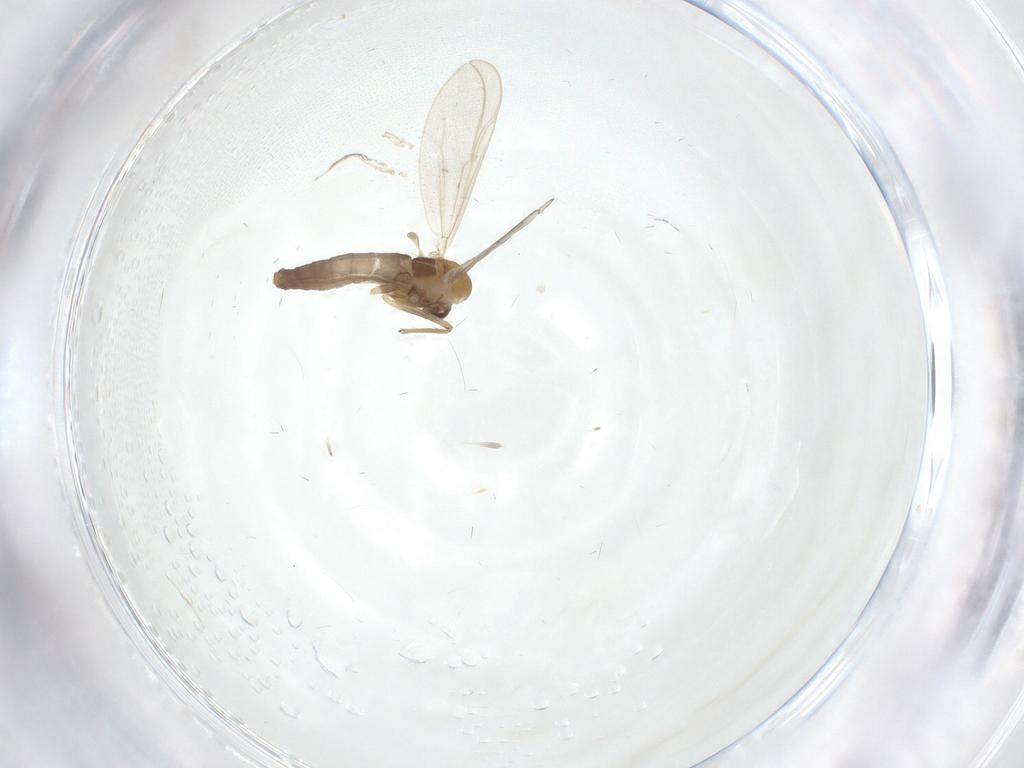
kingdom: Animalia
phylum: Arthropoda
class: Insecta
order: Diptera
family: Chironomidae
